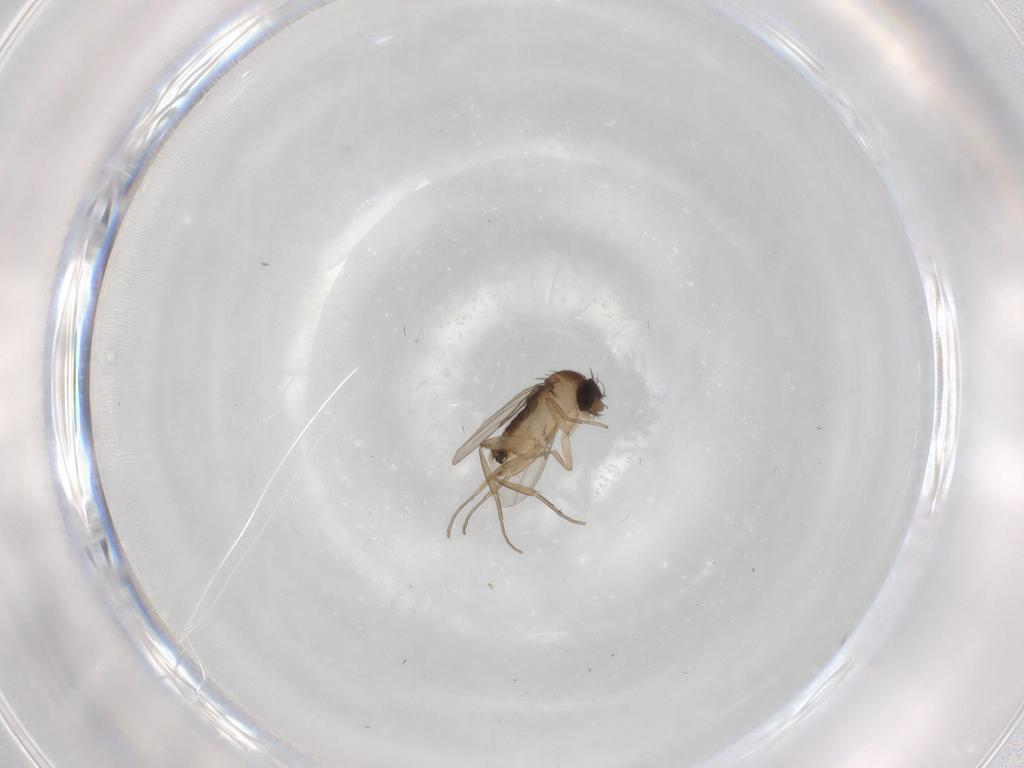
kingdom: Animalia
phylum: Arthropoda
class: Insecta
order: Diptera
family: Phoridae
